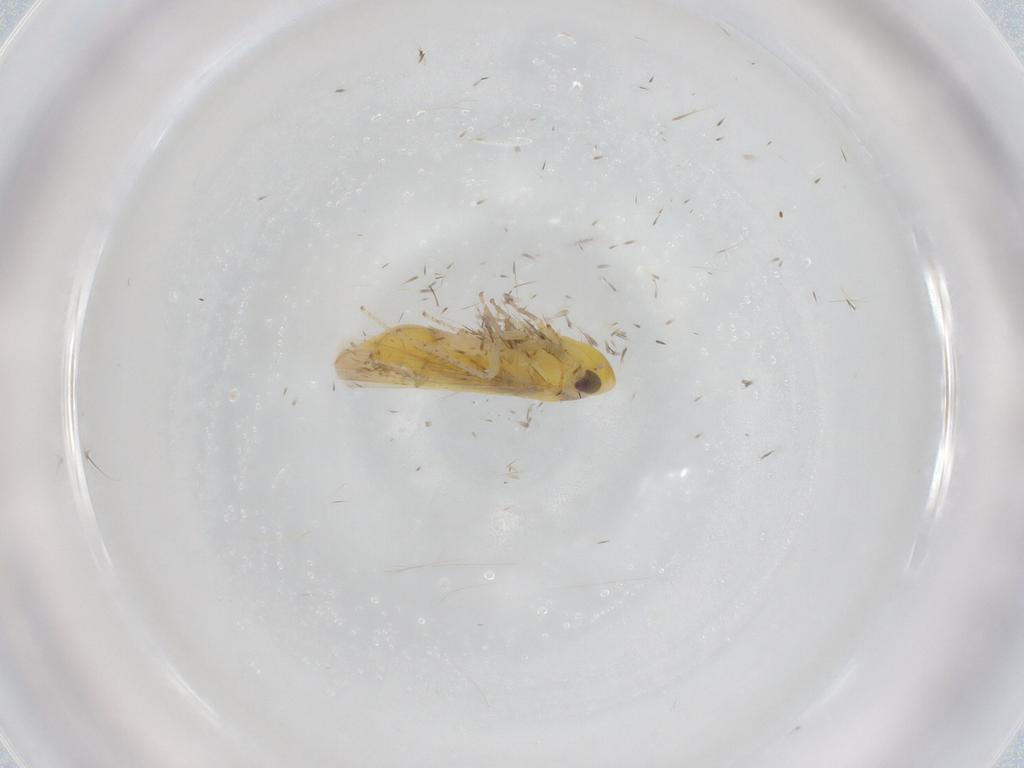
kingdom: Animalia
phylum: Arthropoda
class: Insecta
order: Hemiptera
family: Cicadellidae
